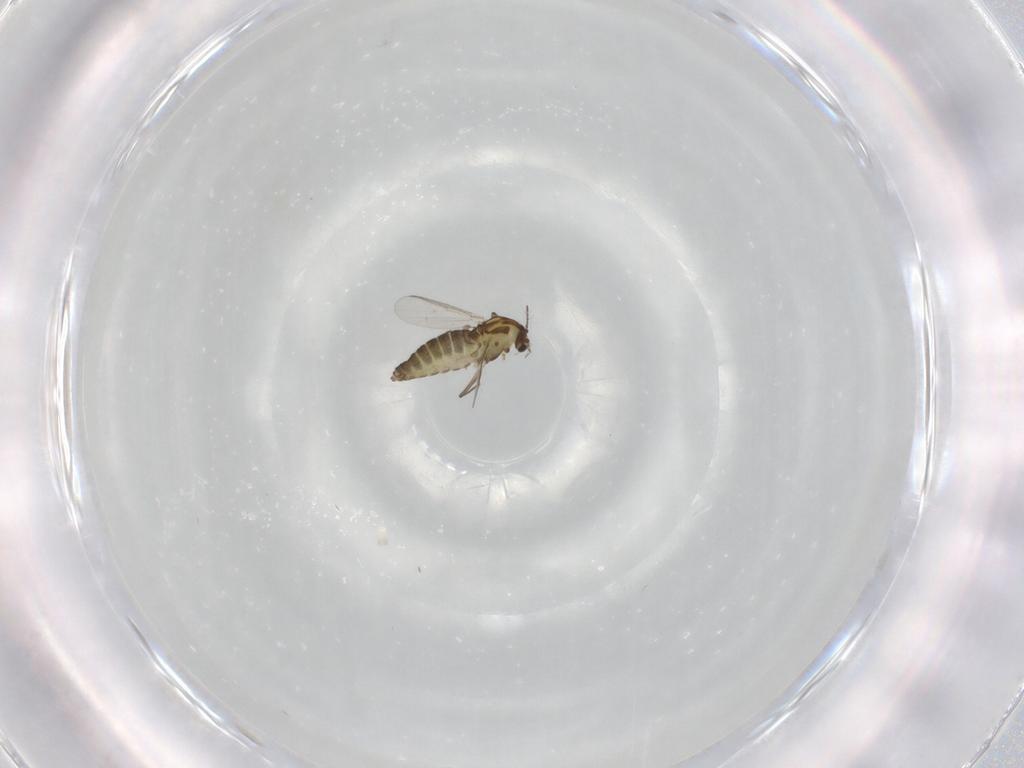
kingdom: Animalia
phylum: Arthropoda
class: Insecta
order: Diptera
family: Chironomidae
